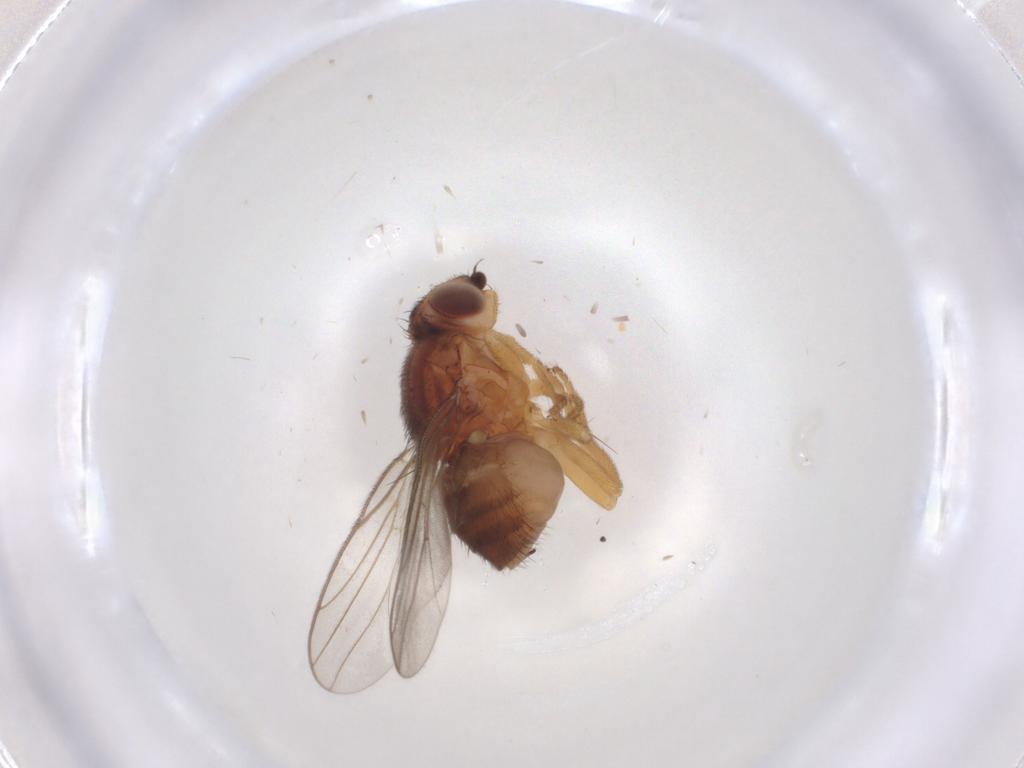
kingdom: Animalia
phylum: Arthropoda
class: Insecta
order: Diptera
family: Chloropidae
